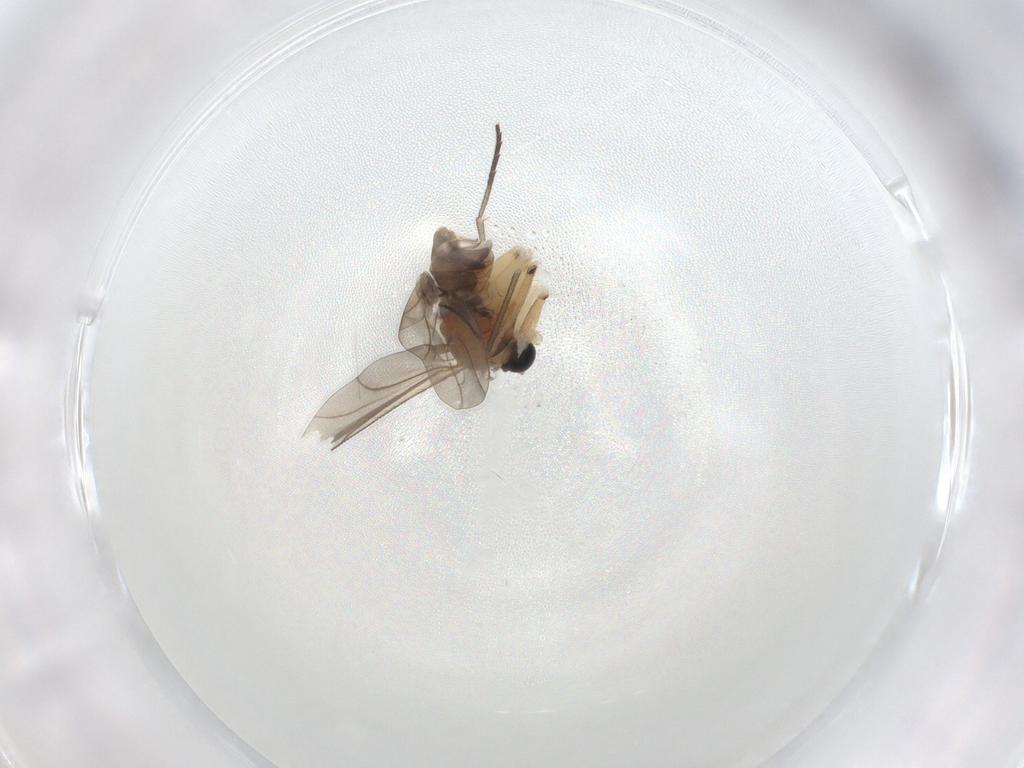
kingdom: Animalia
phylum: Arthropoda
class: Insecta
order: Diptera
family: Sciaridae
